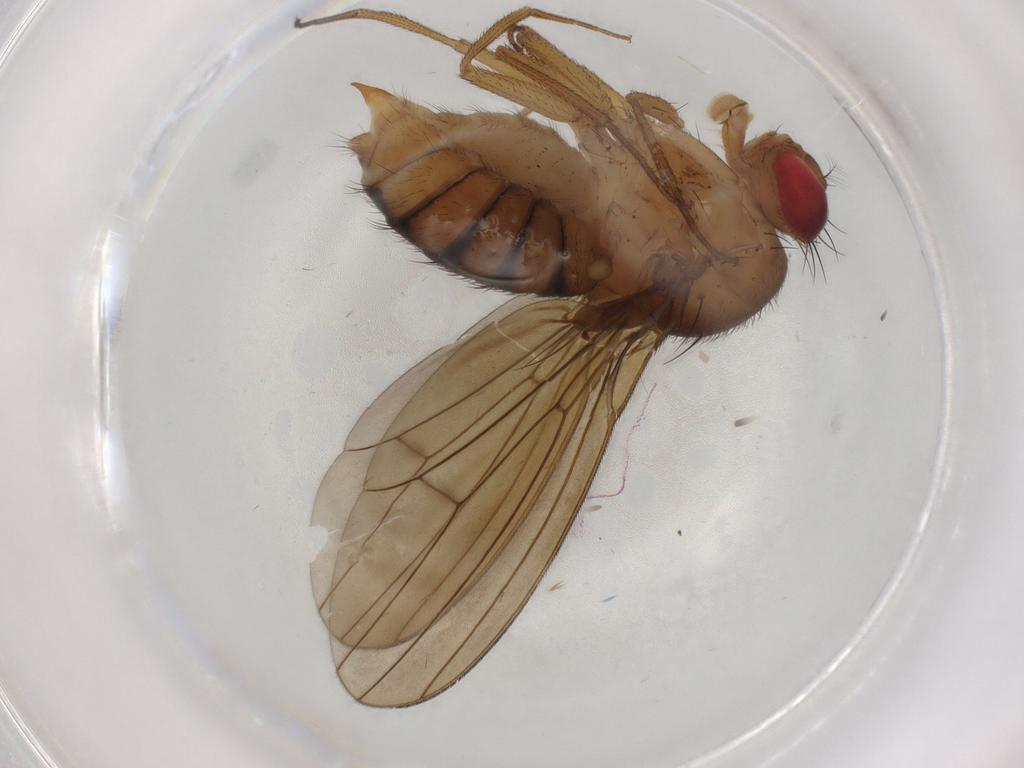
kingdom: Animalia
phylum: Arthropoda
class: Insecta
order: Diptera
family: Drosophilidae
